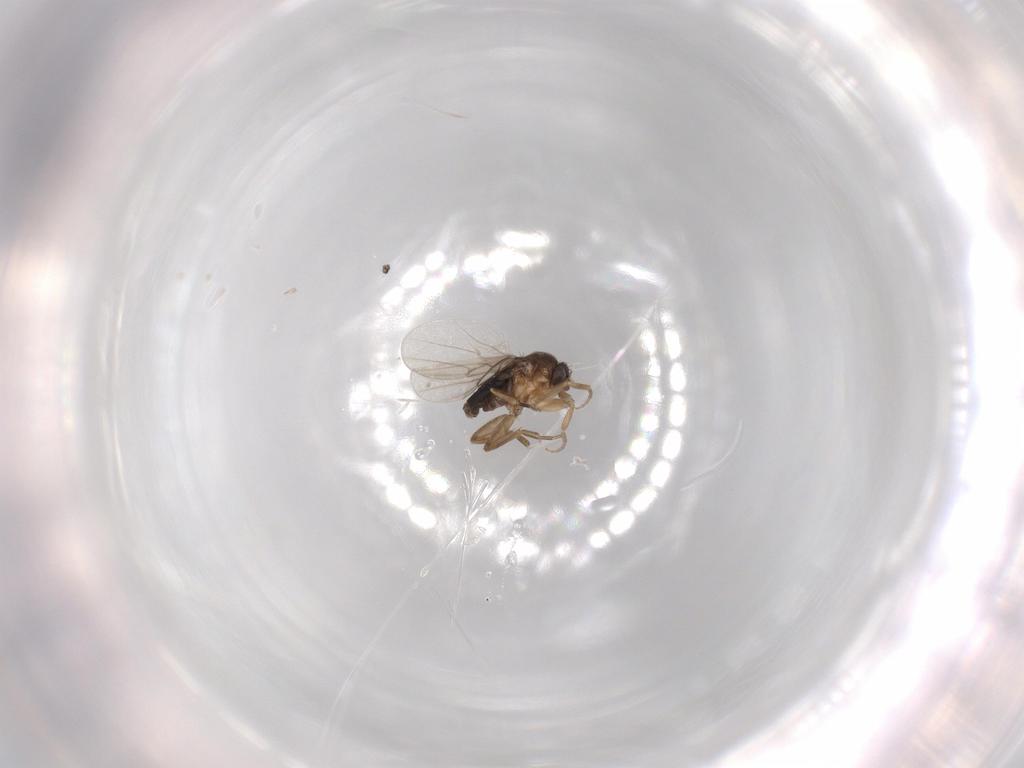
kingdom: Animalia
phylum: Arthropoda
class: Insecta
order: Diptera
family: Phoridae
